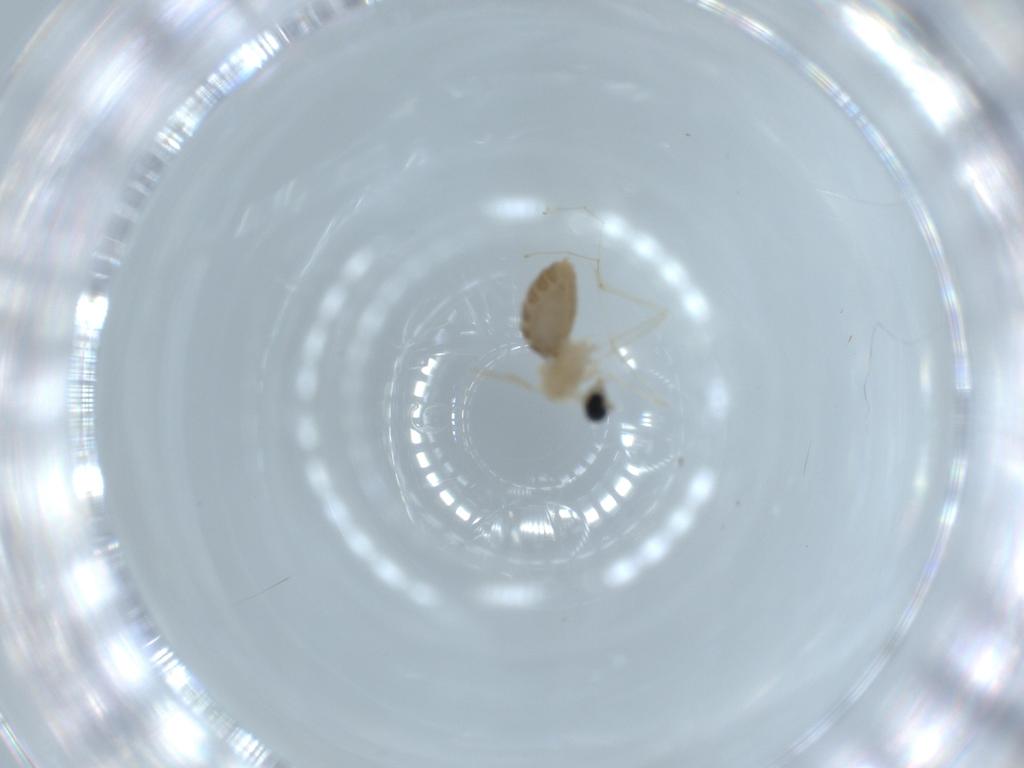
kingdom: Animalia
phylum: Arthropoda
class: Insecta
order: Diptera
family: Cecidomyiidae
